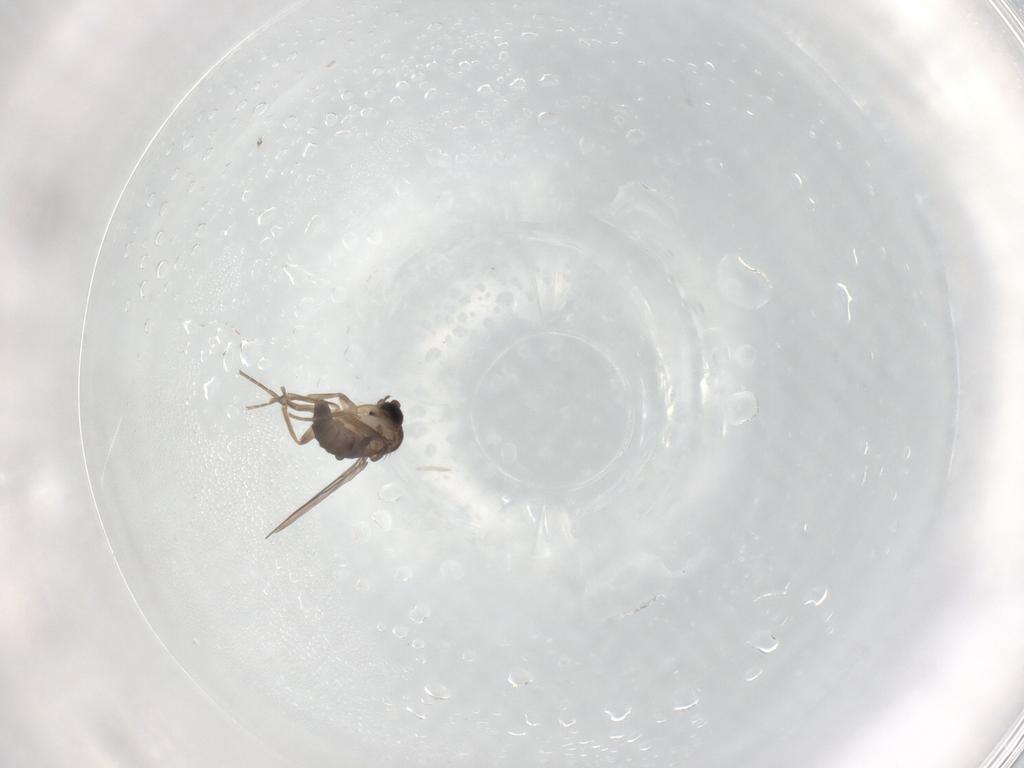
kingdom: Animalia
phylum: Arthropoda
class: Insecta
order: Diptera
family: Phoridae
